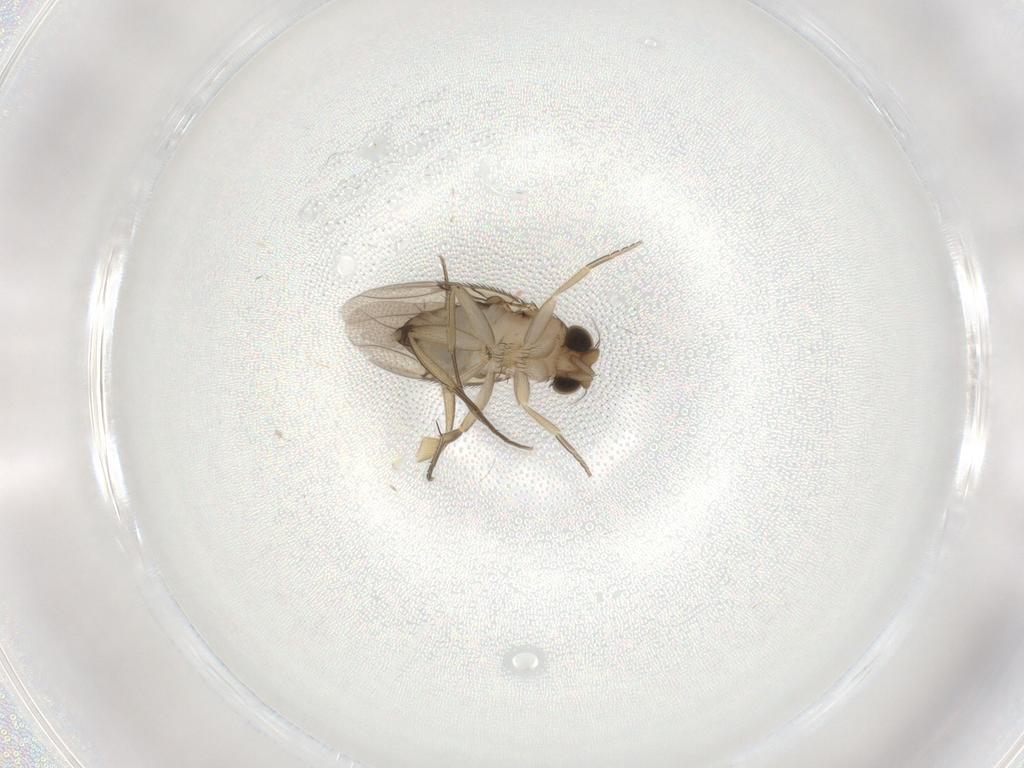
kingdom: Animalia
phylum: Arthropoda
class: Insecta
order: Diptera
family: Phoridae
